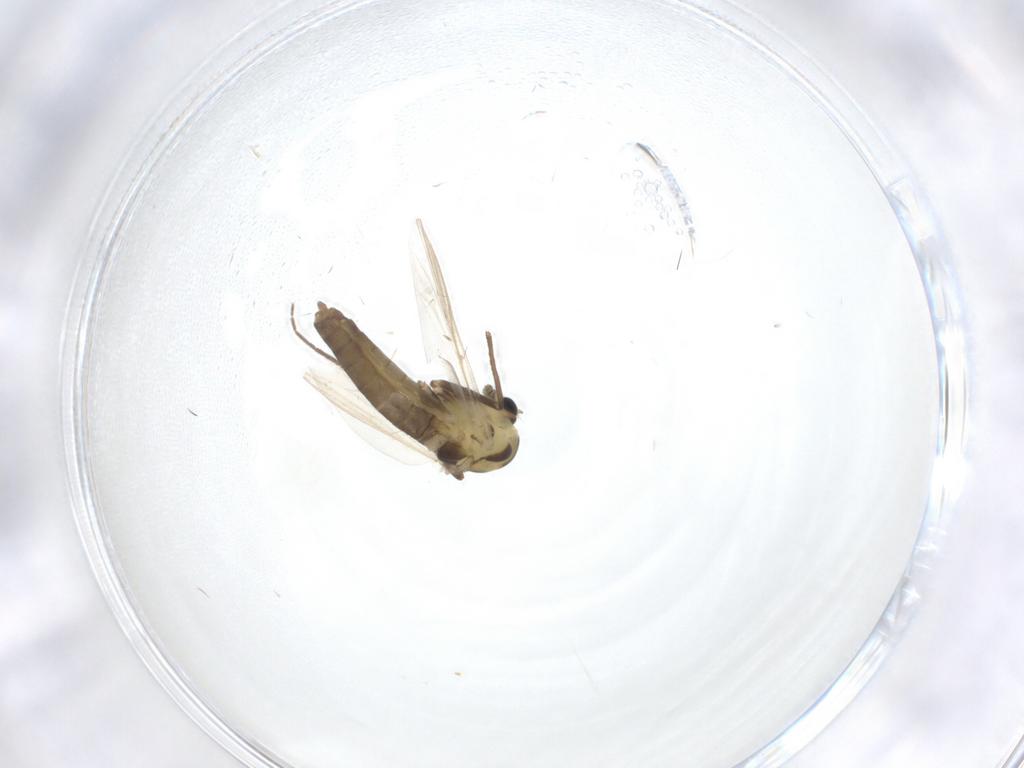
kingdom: Animalia
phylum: Arthropoda
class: Insecta
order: Diptera
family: Chironomidae
